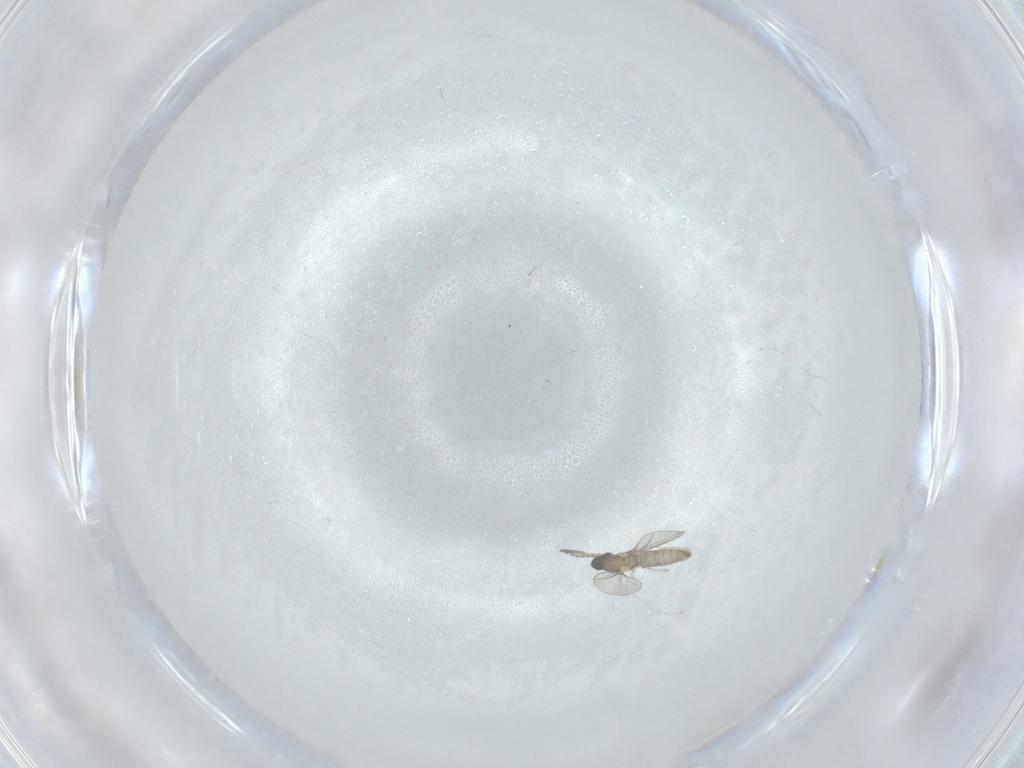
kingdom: Animalia
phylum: Arthropoda
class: Insecta
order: Diptera
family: Cecidomyiidae
